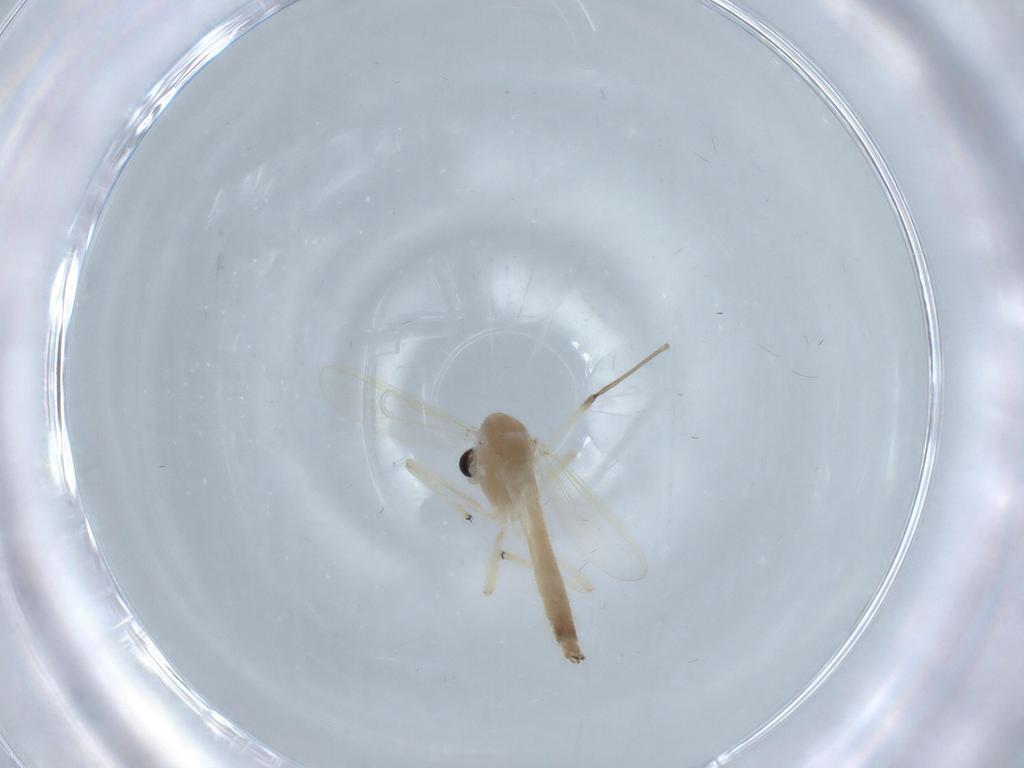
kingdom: Animalia
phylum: Arthropoda
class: Insecta
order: Diptera
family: Chironomidae
